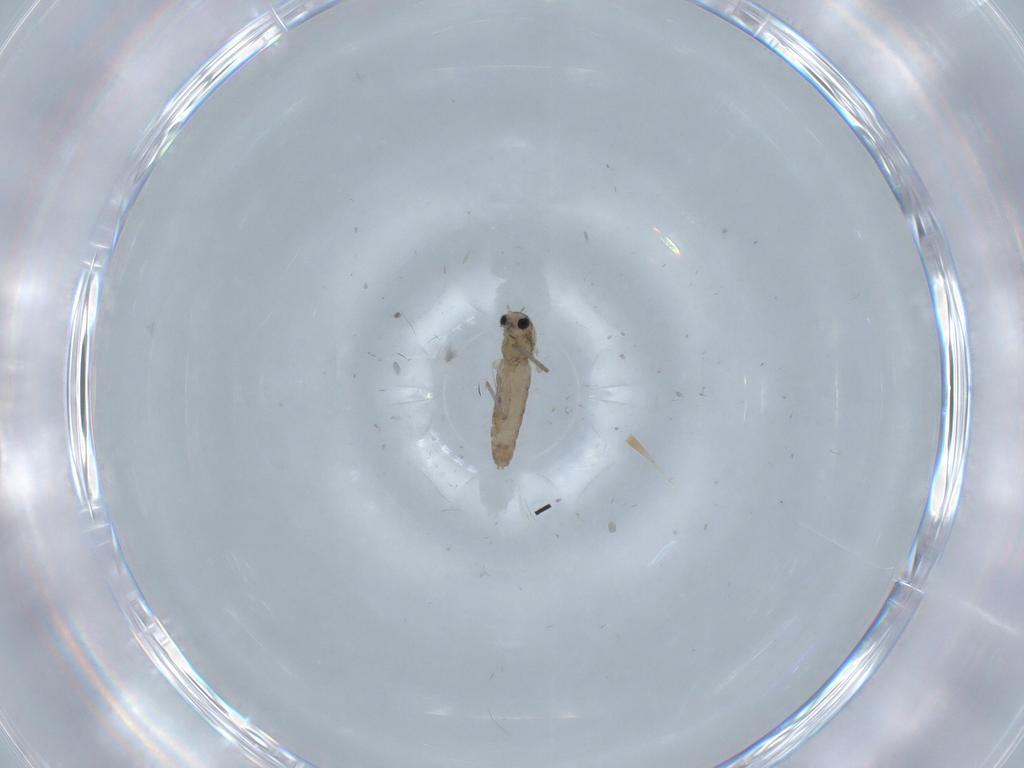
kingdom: Animalia
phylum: Arthropoda
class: Insecta
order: Diptera
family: Chironomidae
